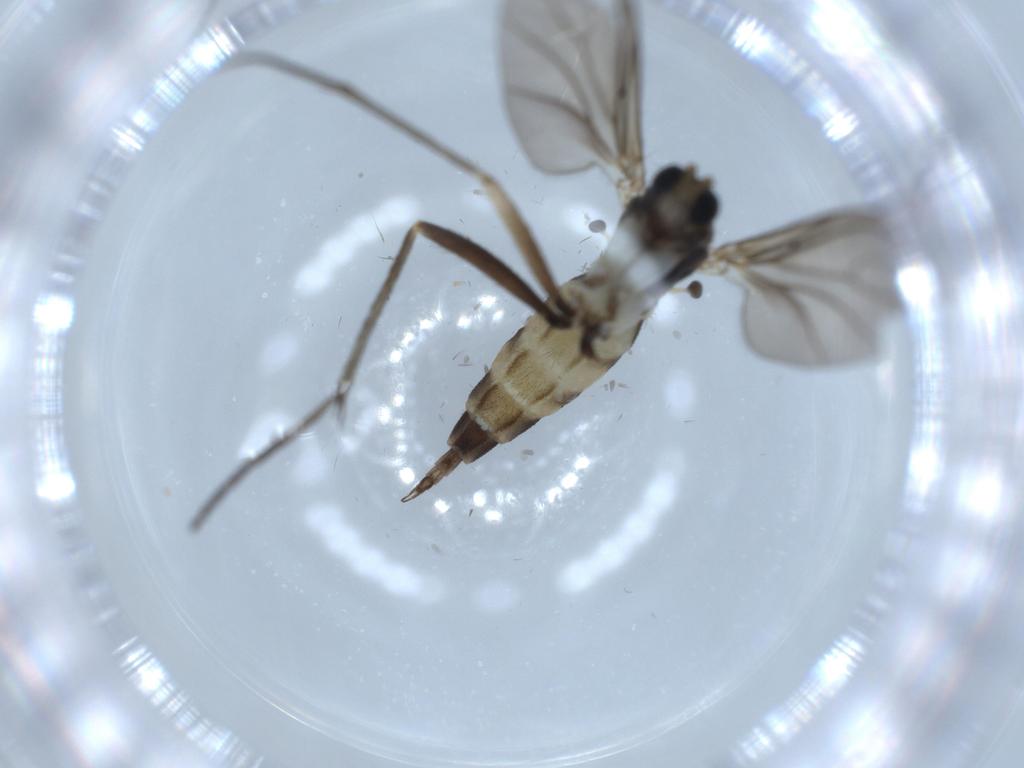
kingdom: Animalia
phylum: Arthropoda
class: Insecta
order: Diptera
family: Sciaridae
